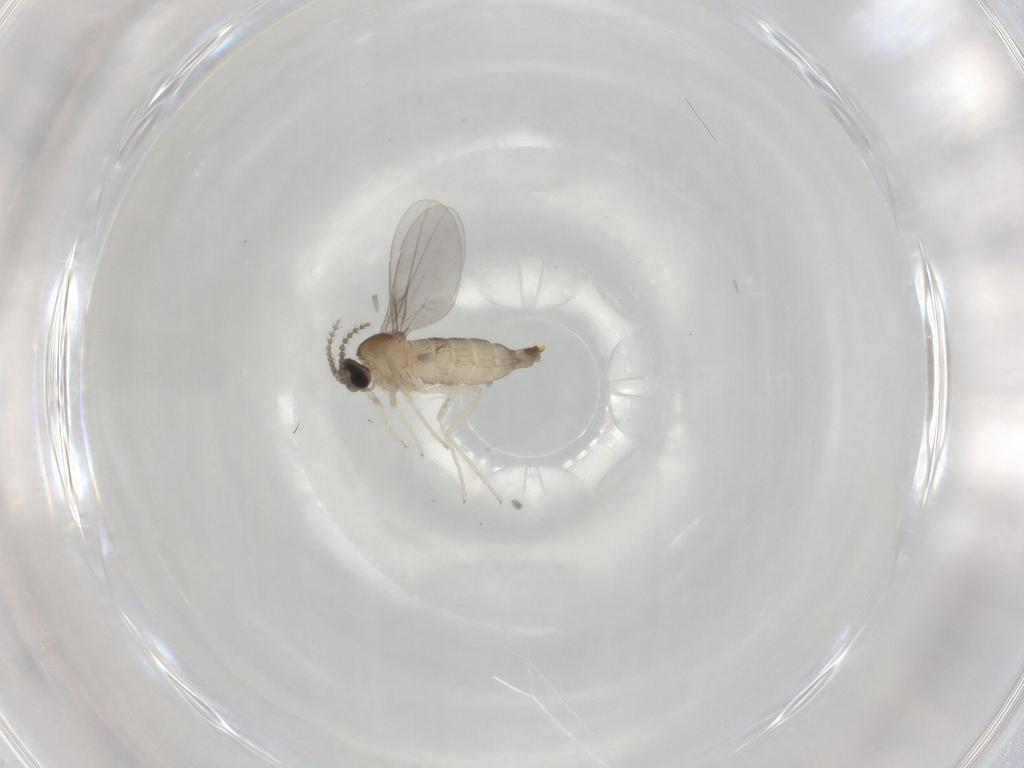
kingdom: Animalia
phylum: Arthropoda
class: Insecta
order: Diptera
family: Cecidomyiidae
